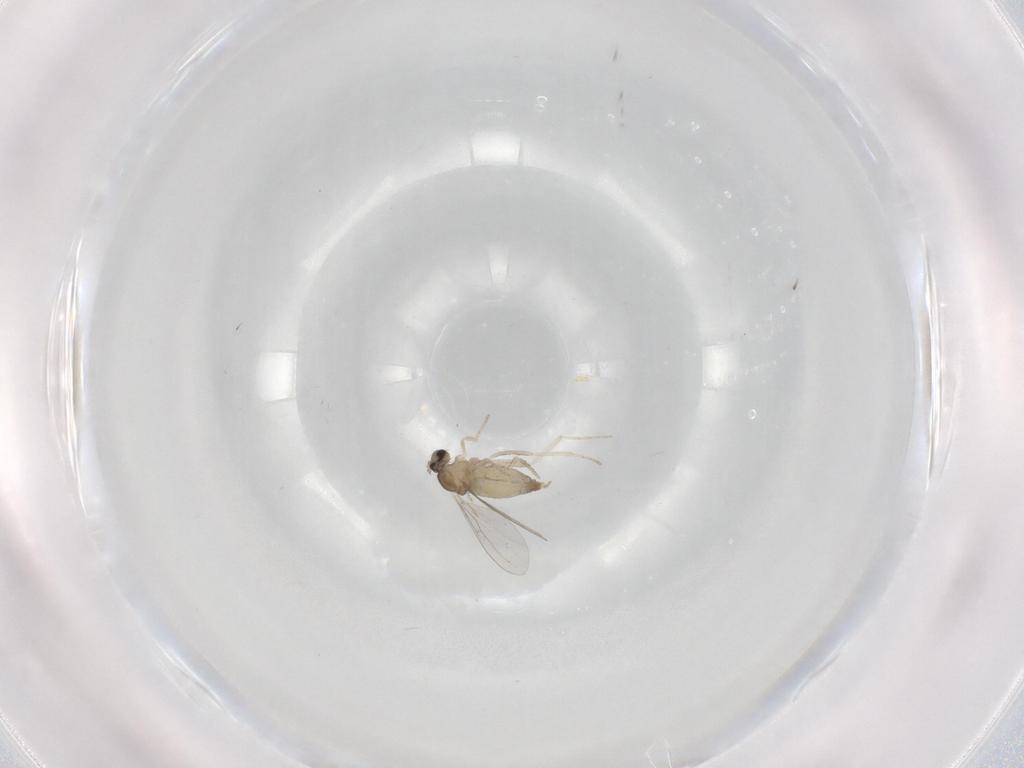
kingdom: Animalia
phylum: Arthropoda
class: Insecta
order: Diptera
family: Cecidomyiidae
